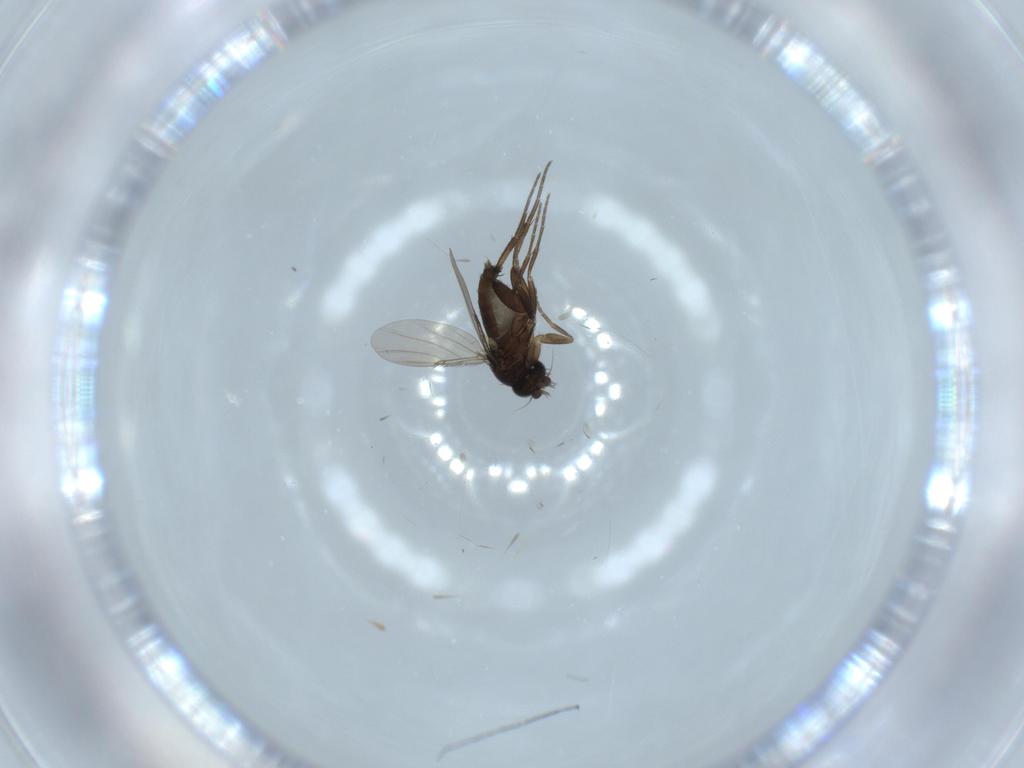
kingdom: Animalia
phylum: Arthropoda
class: Insecta
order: Diptera
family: Phoridae
